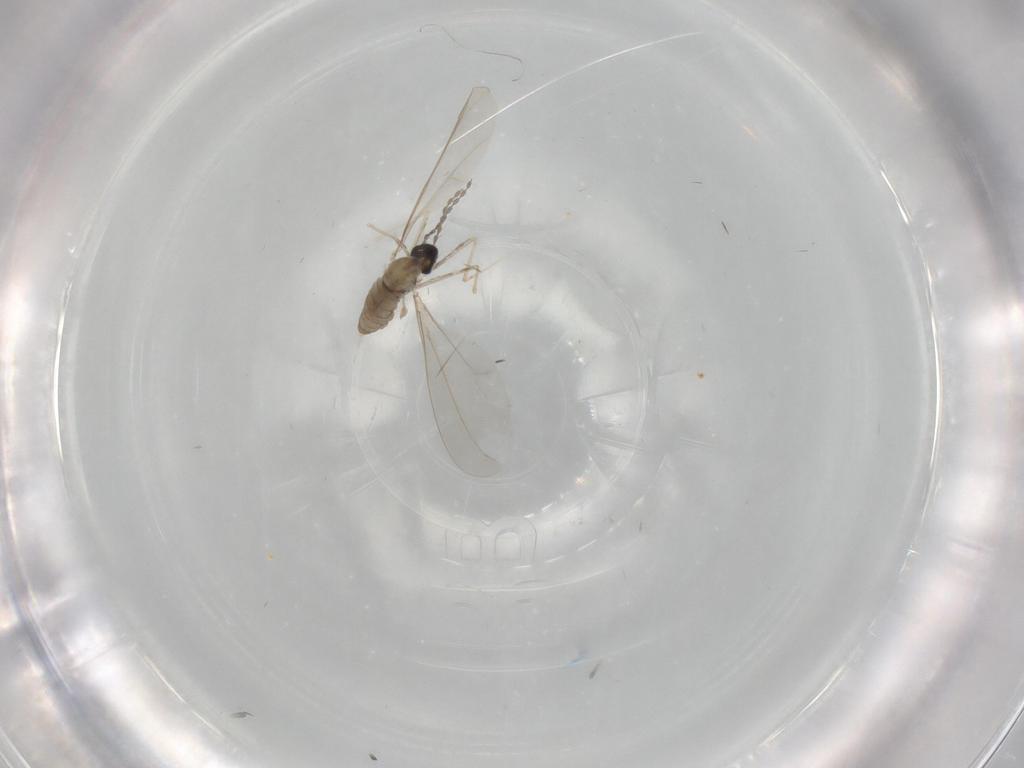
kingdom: Animalia
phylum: Arthropoda
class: Insecta
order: Diptera
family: Cecidomyiidae
